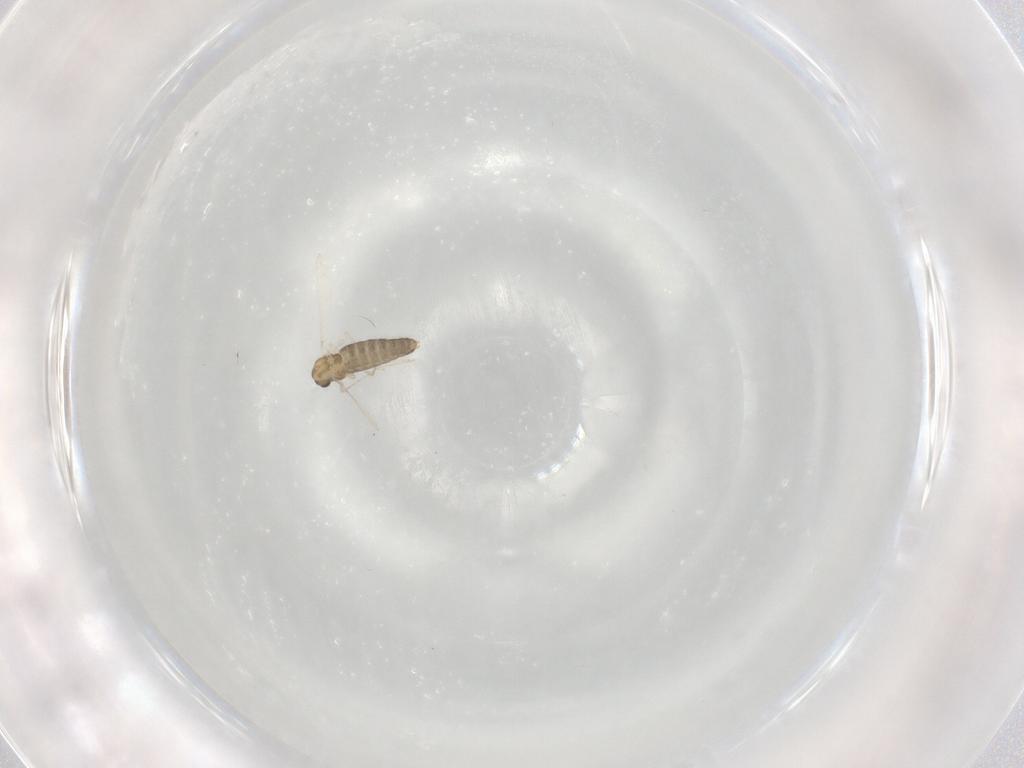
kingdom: Animalia
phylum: Arthropoda
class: Insecta
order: Diptera
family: Chironomidae
